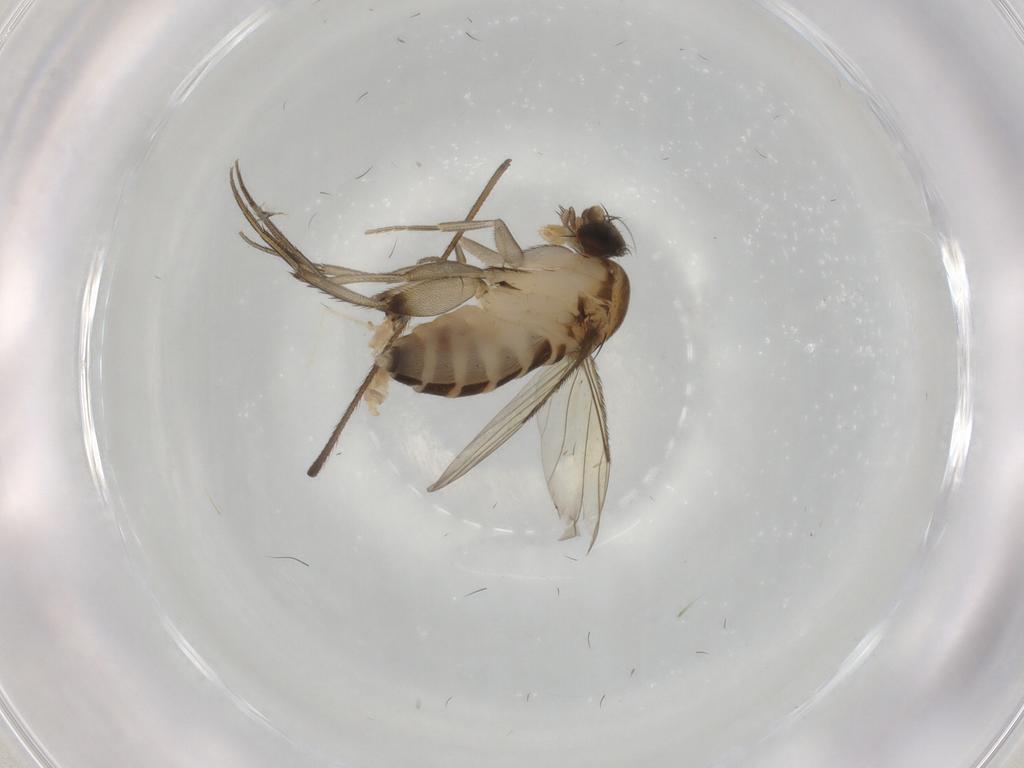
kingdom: Animalia
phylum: Arthropoda
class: Insecta
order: Diptera
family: Phoridae
